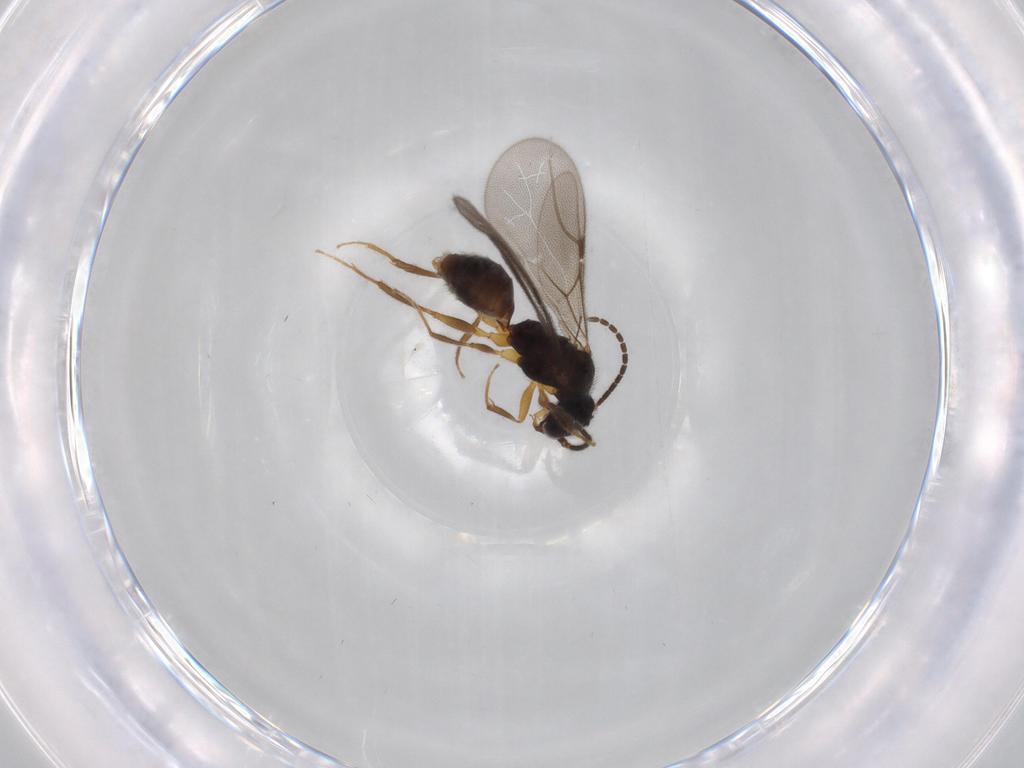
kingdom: Animalia
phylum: Arthropoda
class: Insecta
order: Hymenoptera
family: Bethylidae
